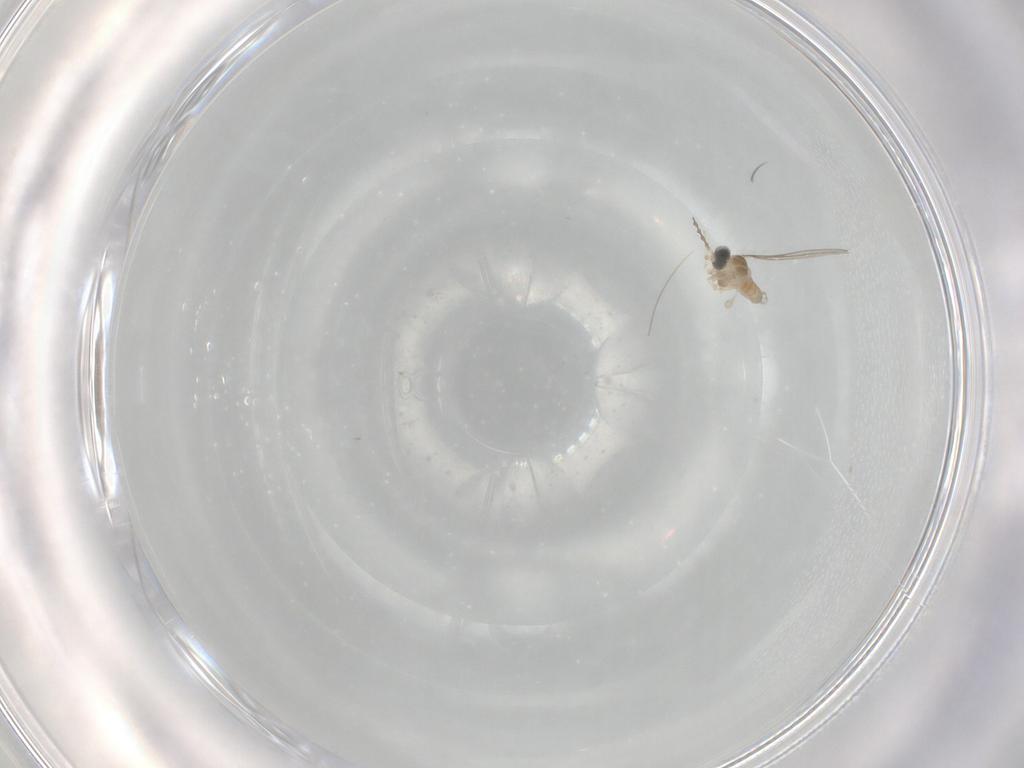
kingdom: Animalia
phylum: Arthropoda
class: Insecta
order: Diptera
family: Cecidomyiidae
